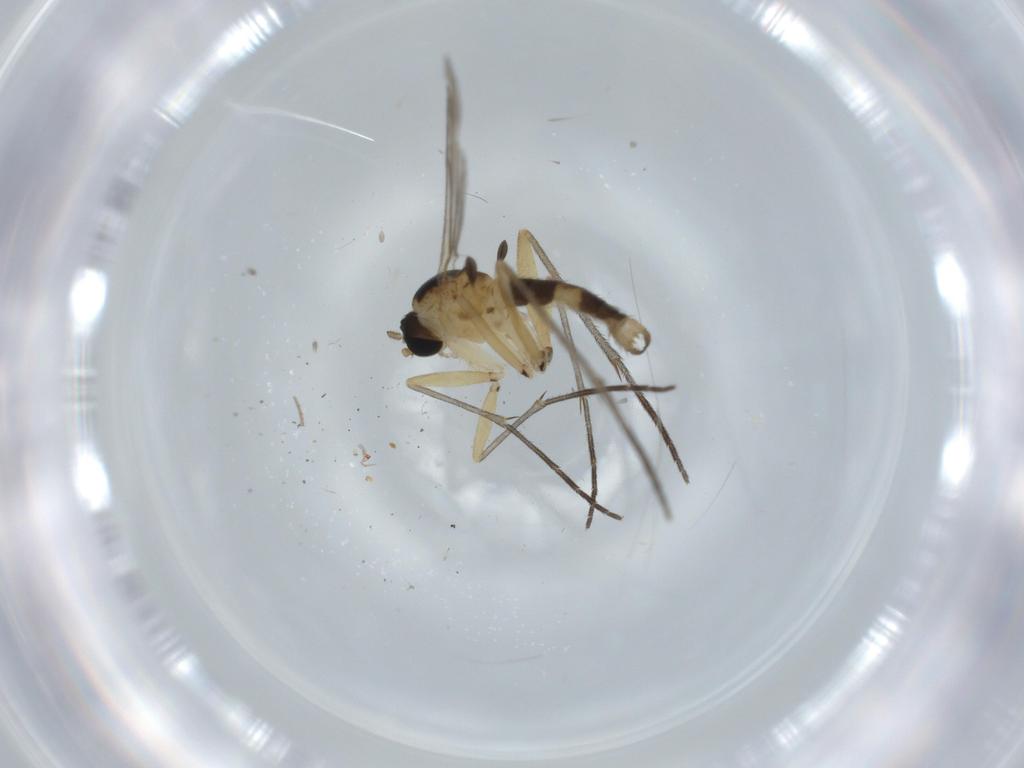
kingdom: Animalia
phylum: Arthropoda
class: Insecta
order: Diptera
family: Sciaridae
